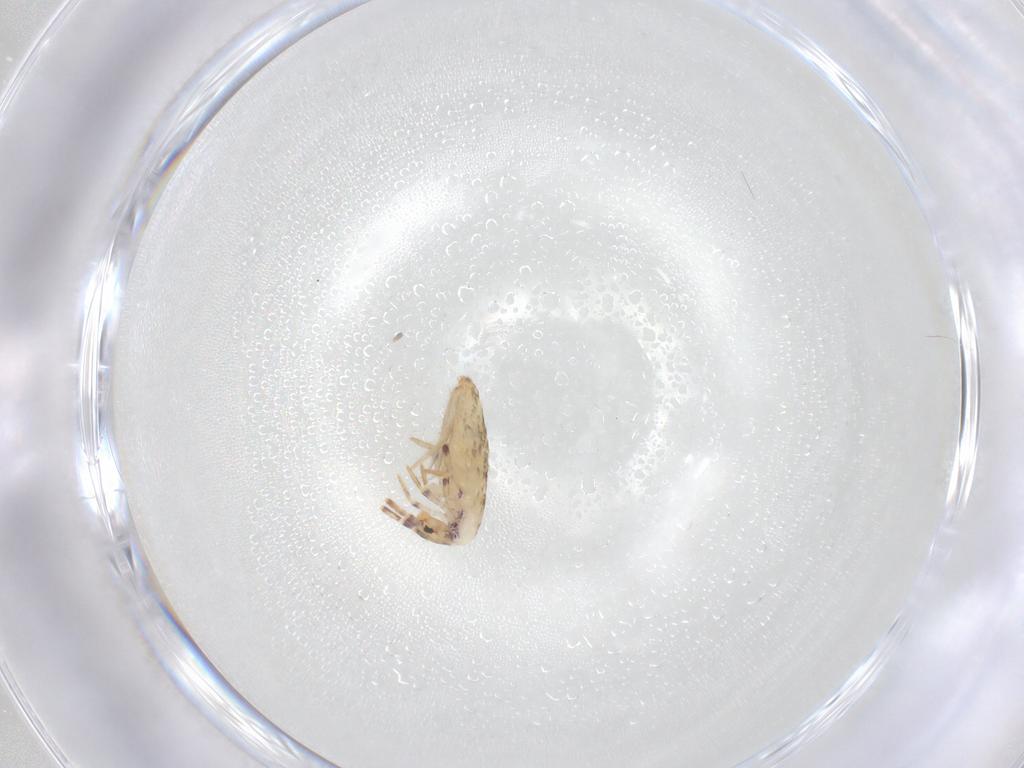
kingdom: Animalia
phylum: Arthropoda
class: Collembola
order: Entomobryomorpha
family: Entomobryidae
